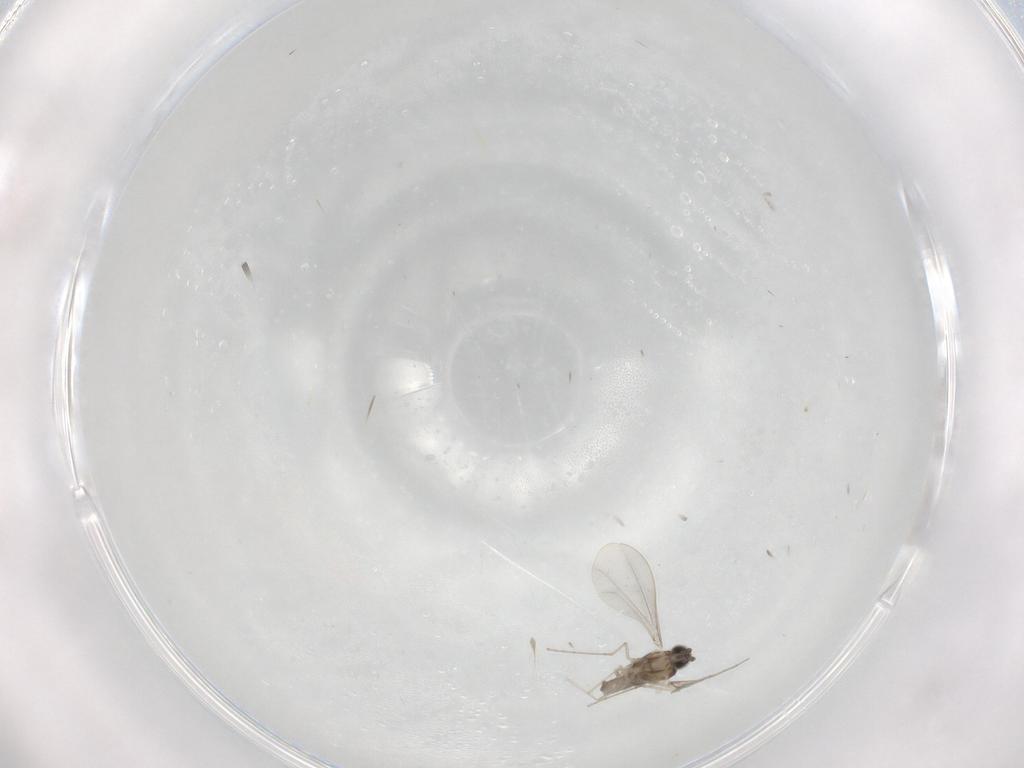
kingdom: Animalia
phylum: Arthropoda
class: Insecta
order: Diptera
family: Cecidomyiidae
